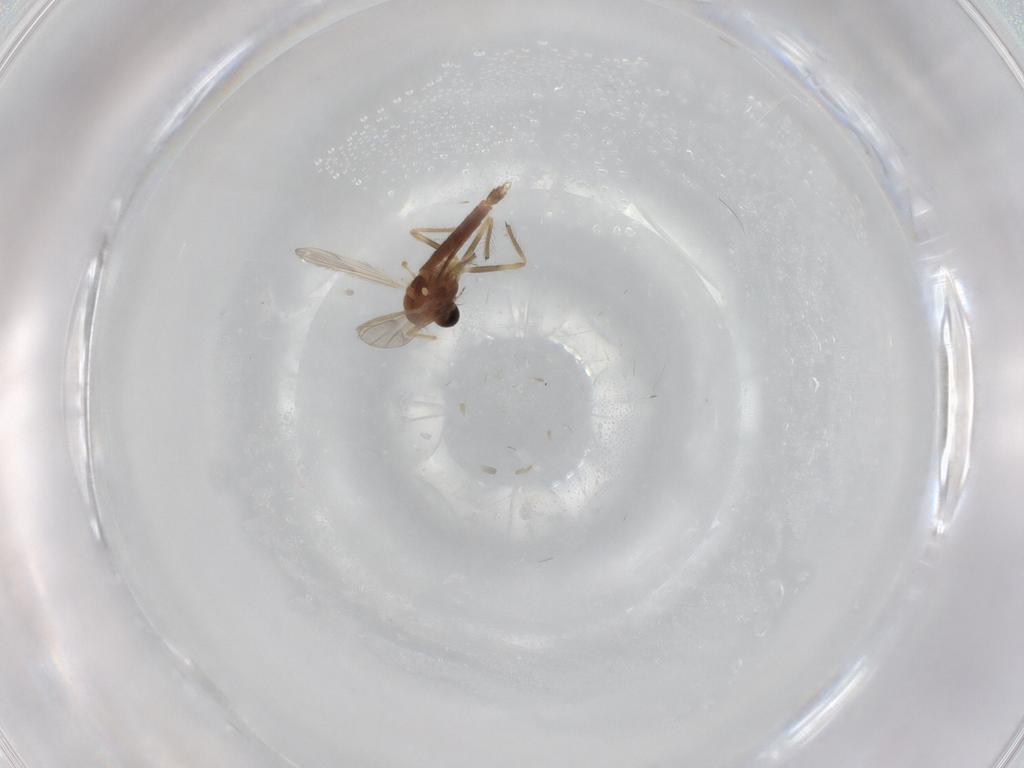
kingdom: Animalia
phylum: Arthropoda
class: Insecta
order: Diptera
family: Chironomidae
